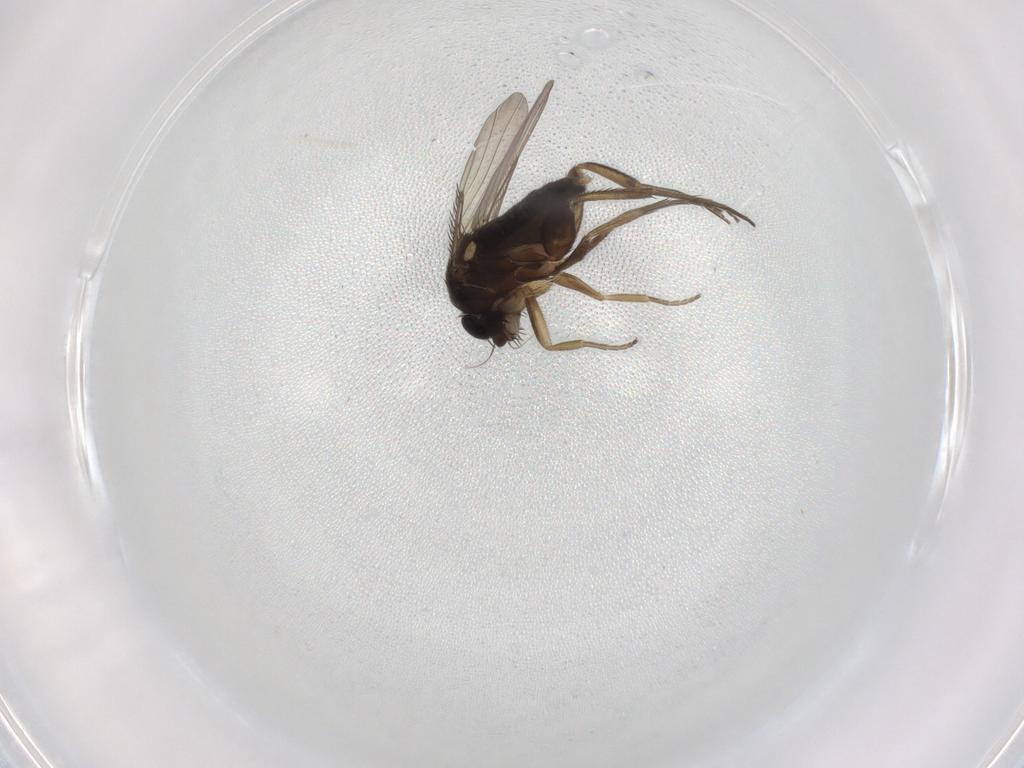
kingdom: Animalia
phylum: Arthropoda
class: Insecta
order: Diptera
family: Phoridae
